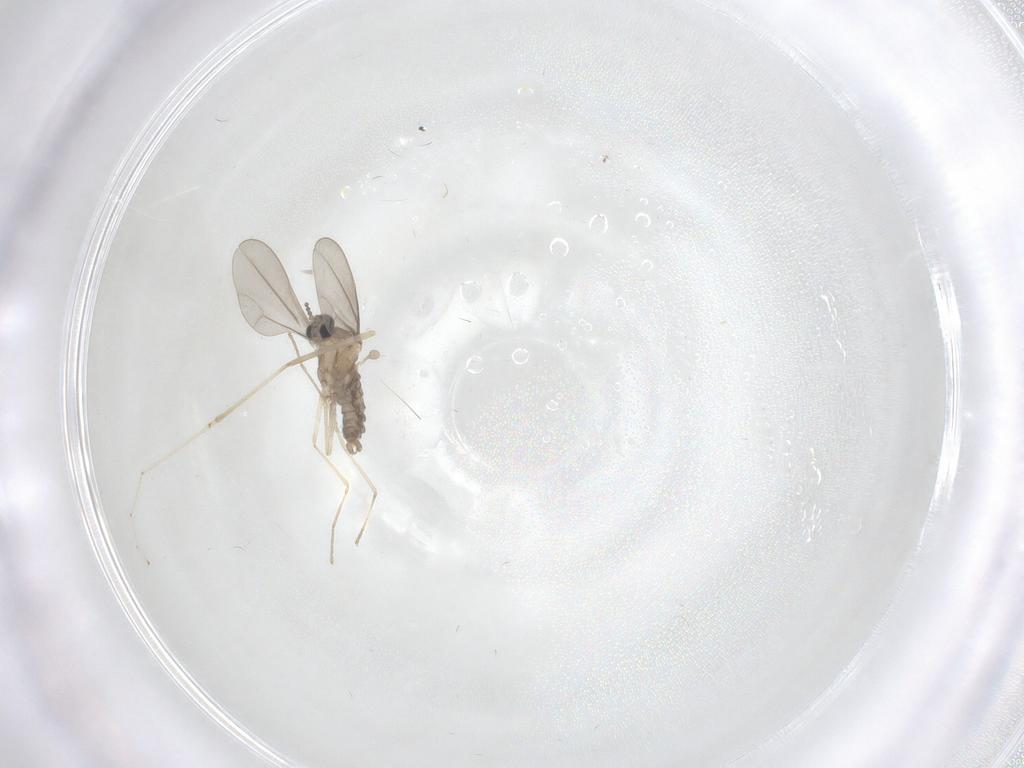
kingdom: Animalia
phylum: Arthropoda
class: Insecta
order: Diptera
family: Cecidomyiidae
